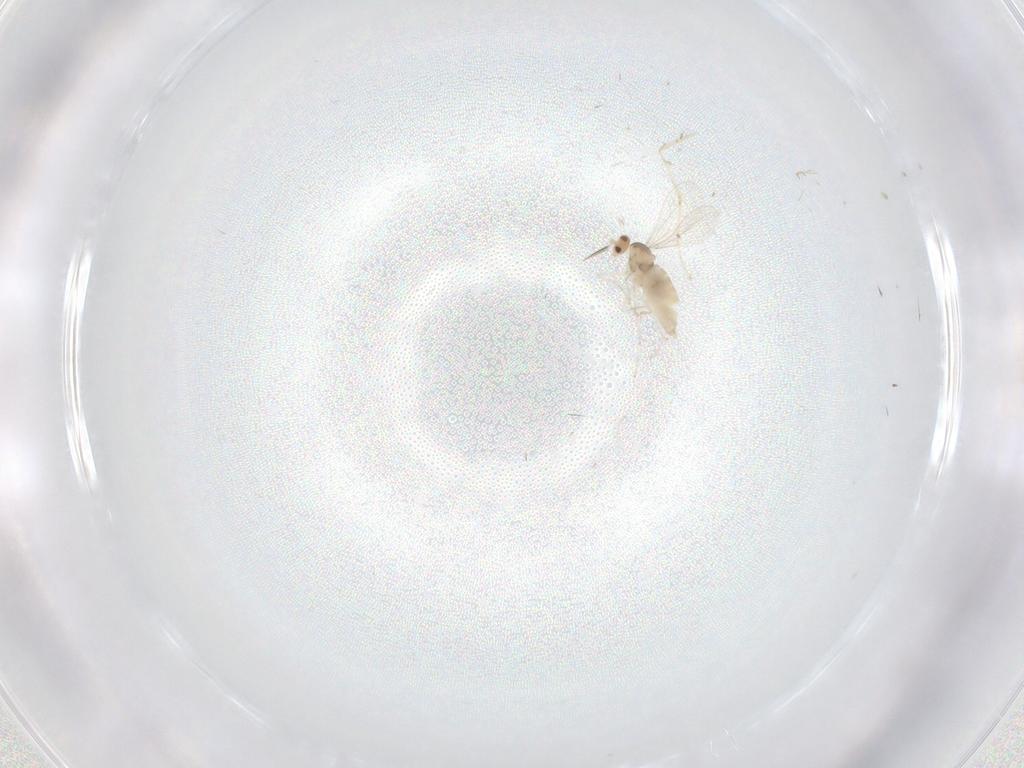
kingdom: Animalia
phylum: Arthropoda
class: Insecta
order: Diptera
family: Cecidomyiidae
